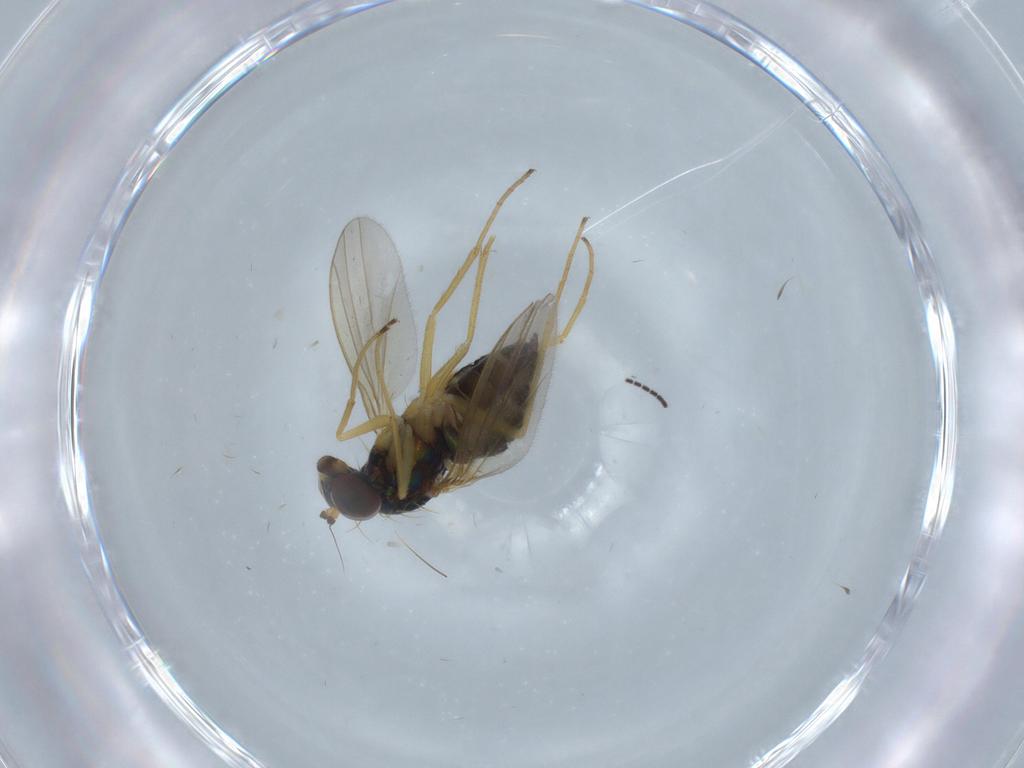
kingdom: Animalia
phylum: Arthropoda
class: Insecta
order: Diptera
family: Dolichopodidae
